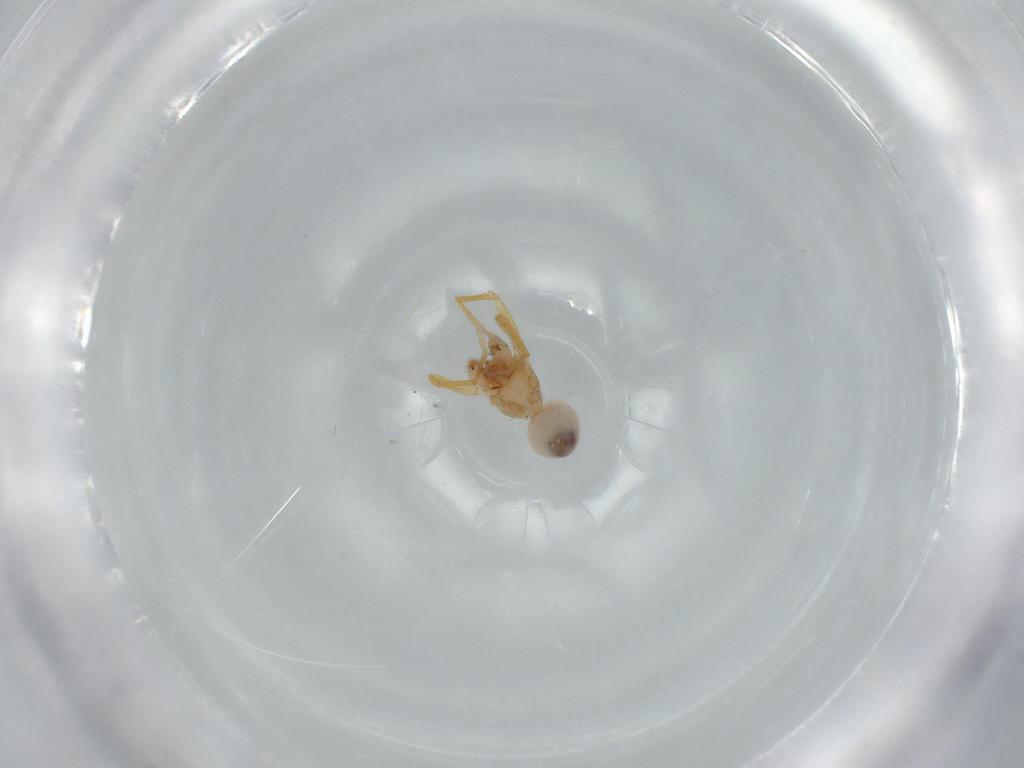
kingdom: Animalia
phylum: Arthropoda
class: Arachnida
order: Araneae
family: Oonopidae
